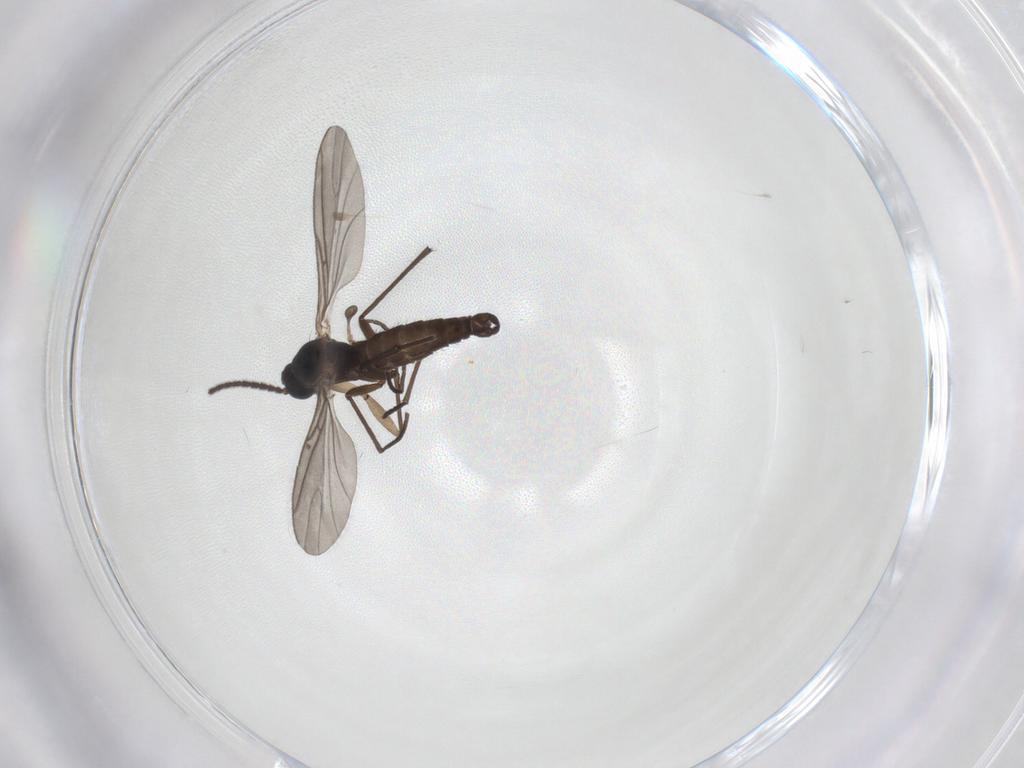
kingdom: Animalia
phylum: Arthropoda
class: Insecta
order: Diptera
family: Sciaridae
